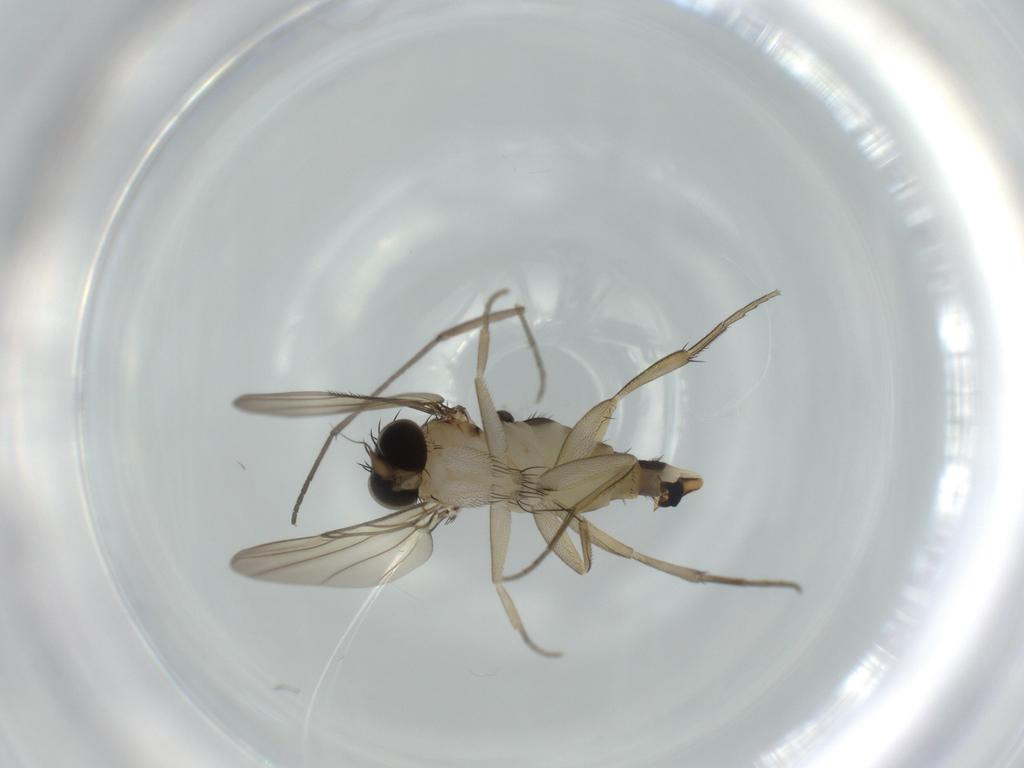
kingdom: Animalia
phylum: Arthropoda
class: Insecta
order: Diptera
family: Phoridae
